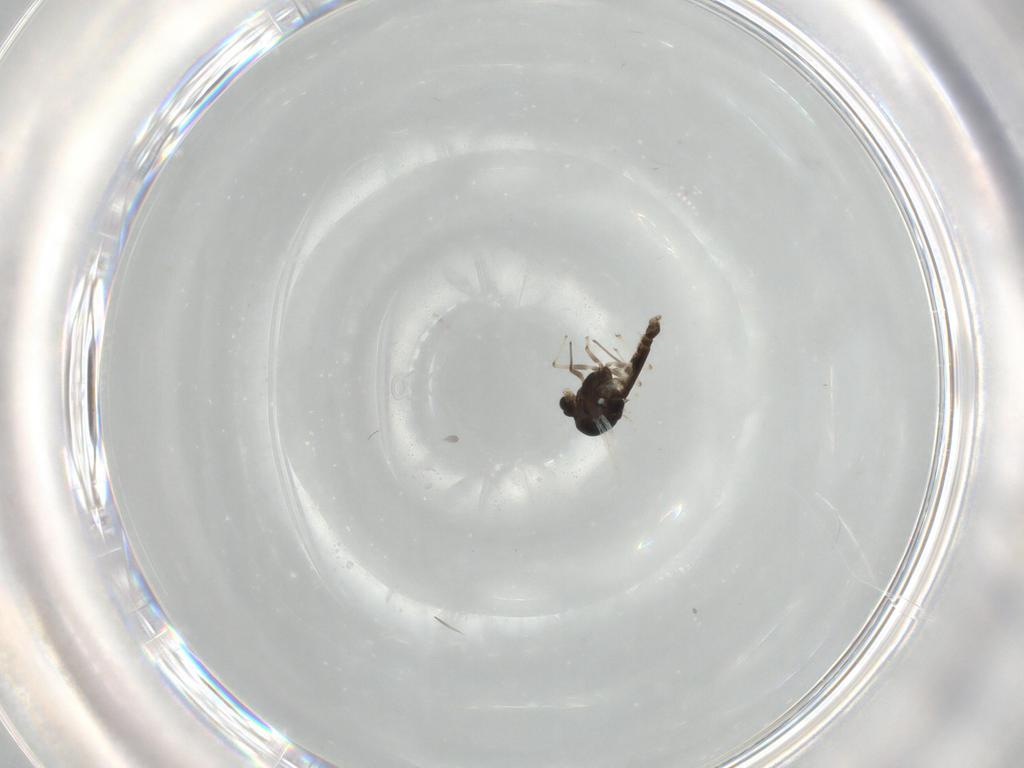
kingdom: Animalia
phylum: Arthropoda
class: Insecta
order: Diptera
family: Chironomidae
